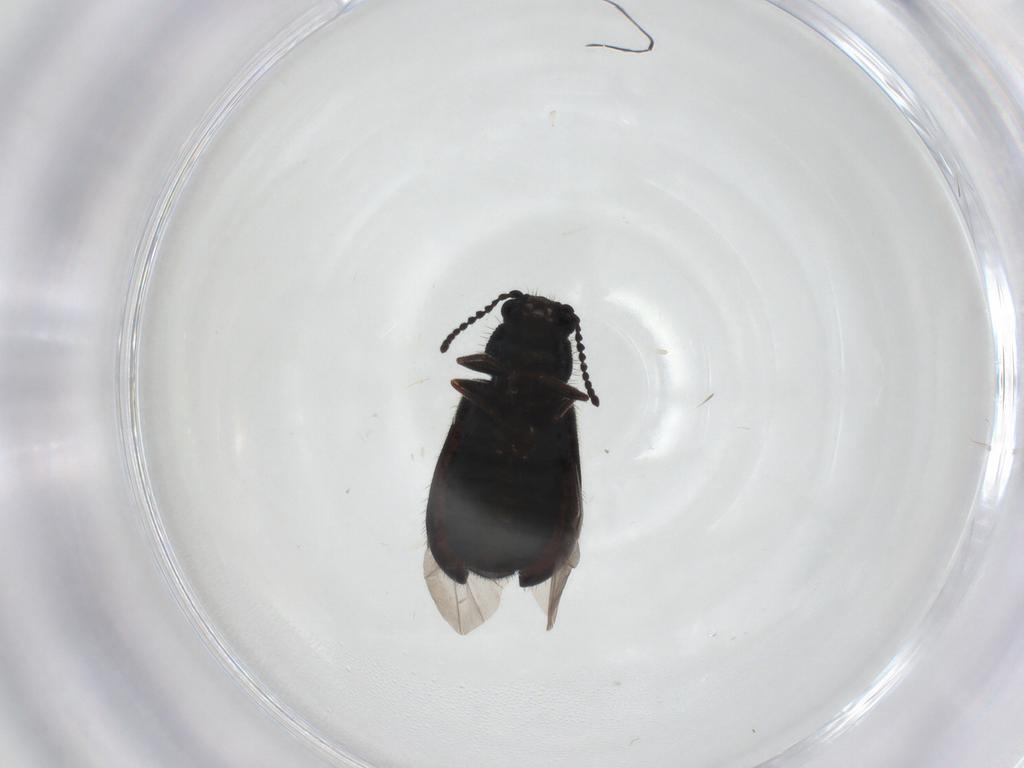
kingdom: Animalia
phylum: Arthropoda
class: Insecta
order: Coleoptera
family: Melyridae
